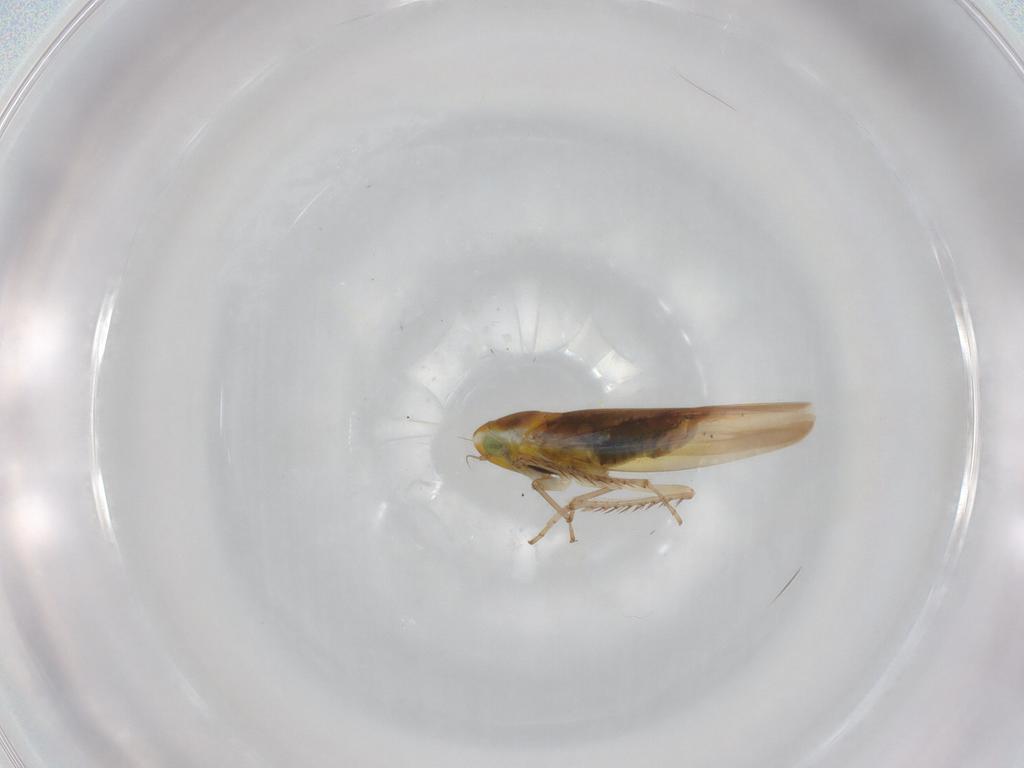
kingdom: Animalia
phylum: Arthropoda
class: Insecta
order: Hemiptera
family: Cicadellidae
